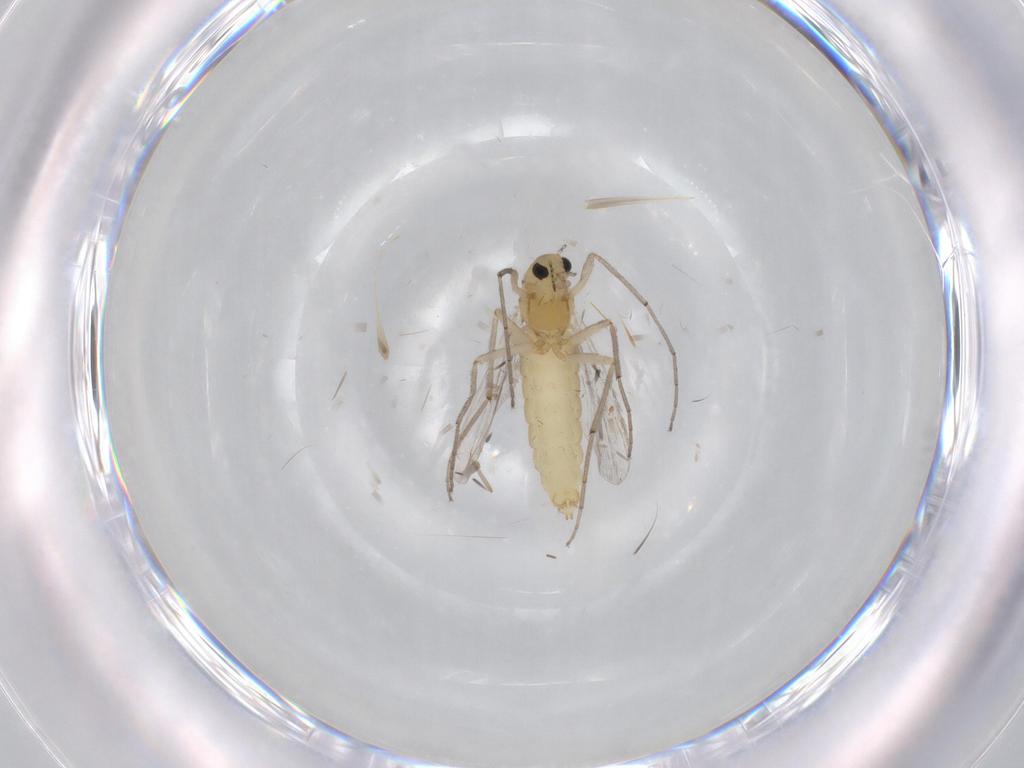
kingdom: Animalia
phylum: Arthropoda
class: Insecta
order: Diptera
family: Chironomidae
